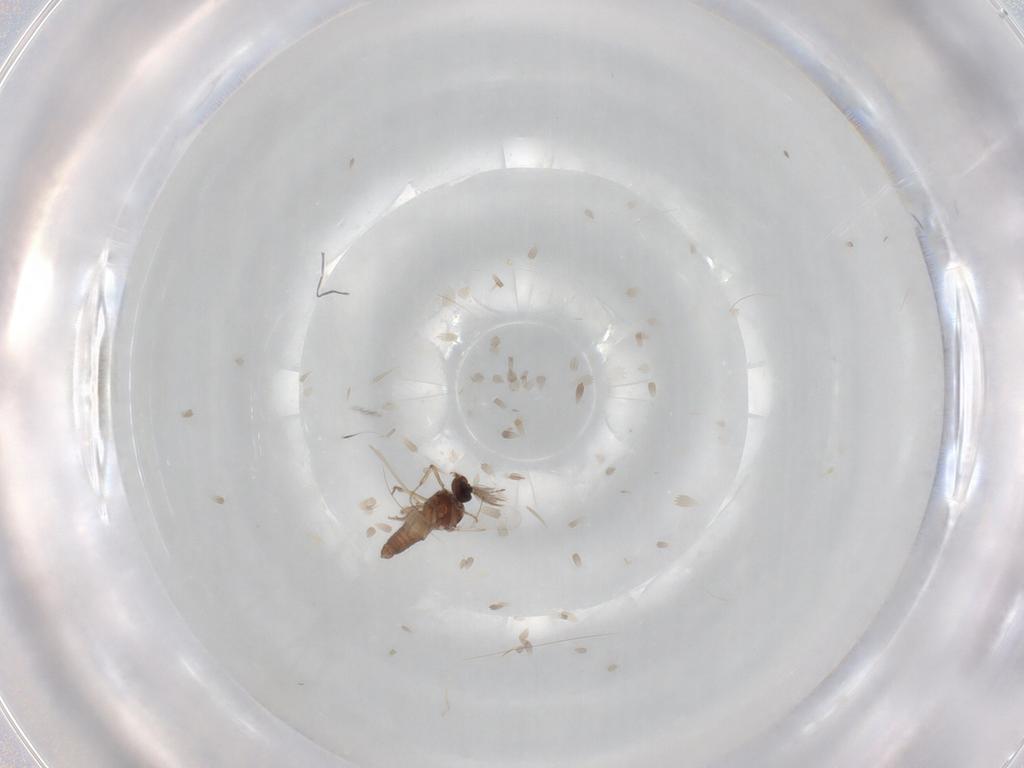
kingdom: Animalia
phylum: Arthropoda
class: Insecta
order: Diptera
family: Ceratopogonidae
